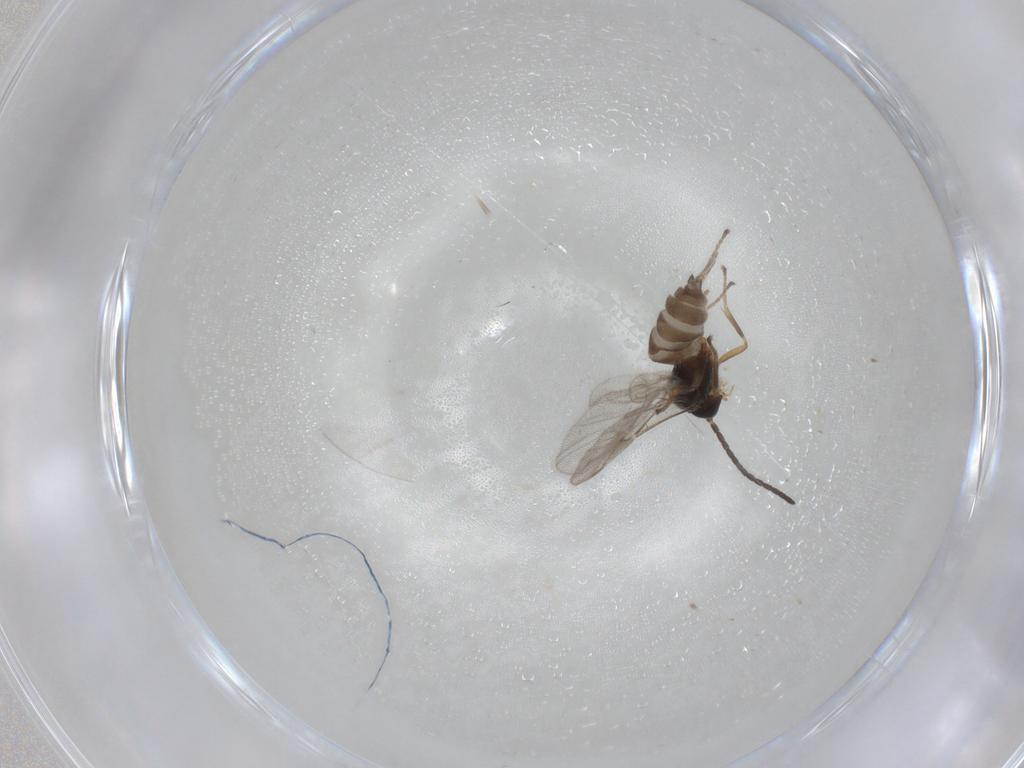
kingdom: Animalia
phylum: Arthropoda
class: Insecta
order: Hymenoptera
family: Braconidae
